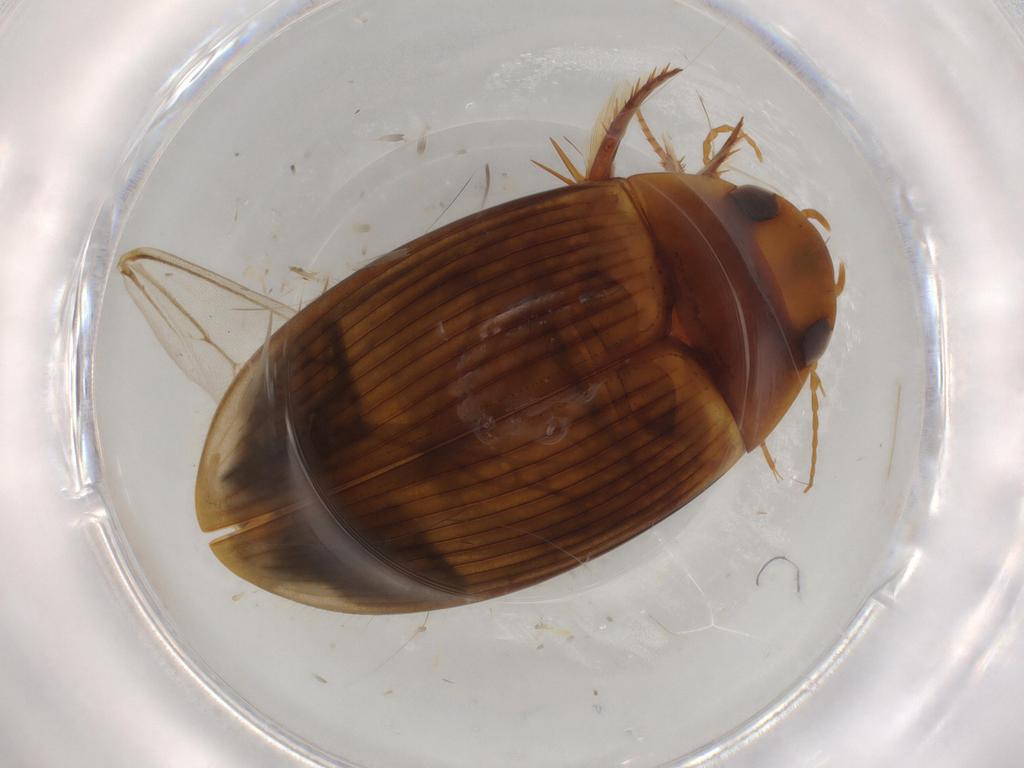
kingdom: Animalia
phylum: Arthropoda
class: Insecta
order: Coleoptera
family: Dytiscidae
